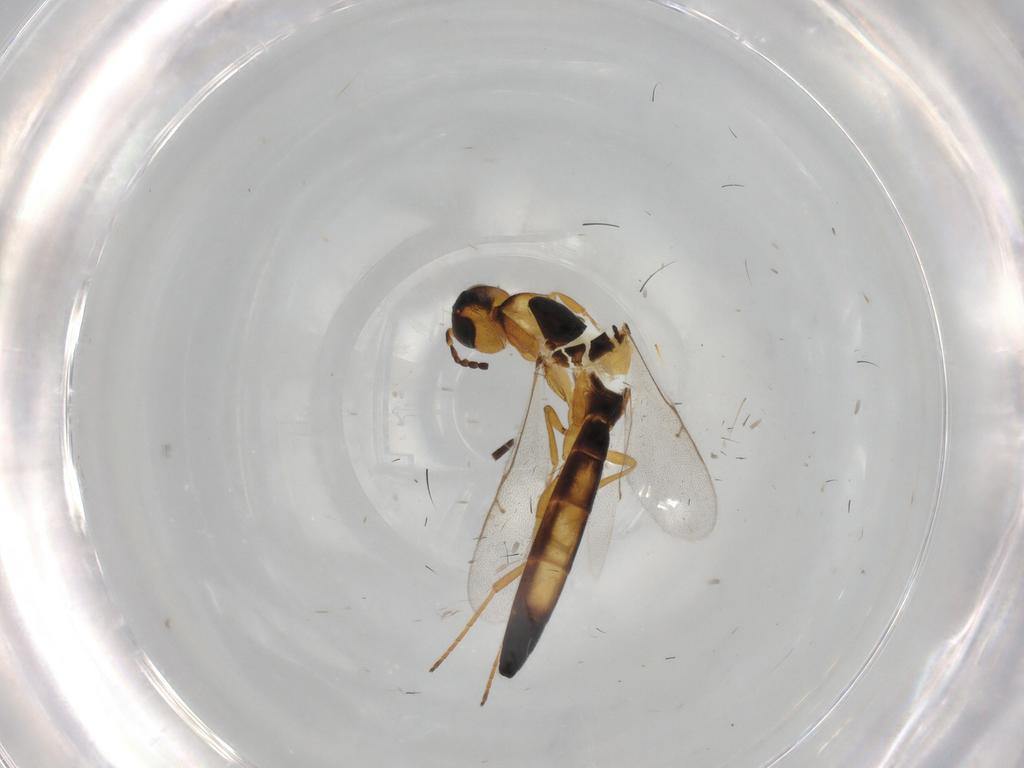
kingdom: Animalia
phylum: Arthropoda
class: Insecta
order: Hymenoptera
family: Scelionidae
